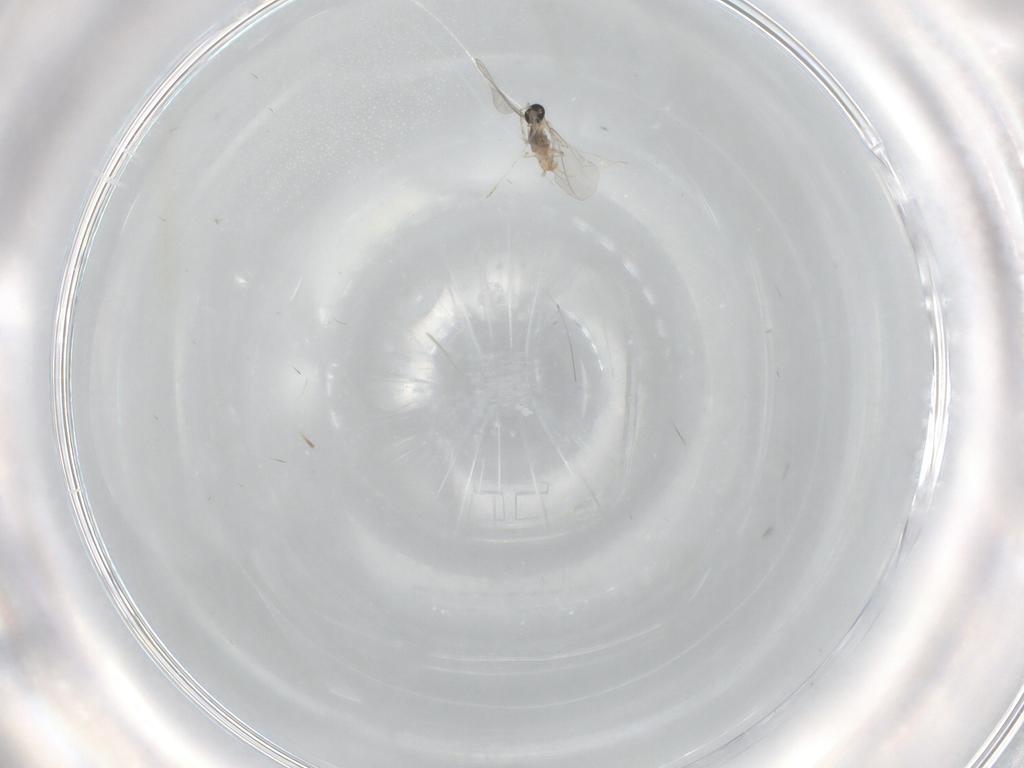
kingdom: Animalia
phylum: Arthropoda
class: Insecta
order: Diptera
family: Cecidomyiidae
